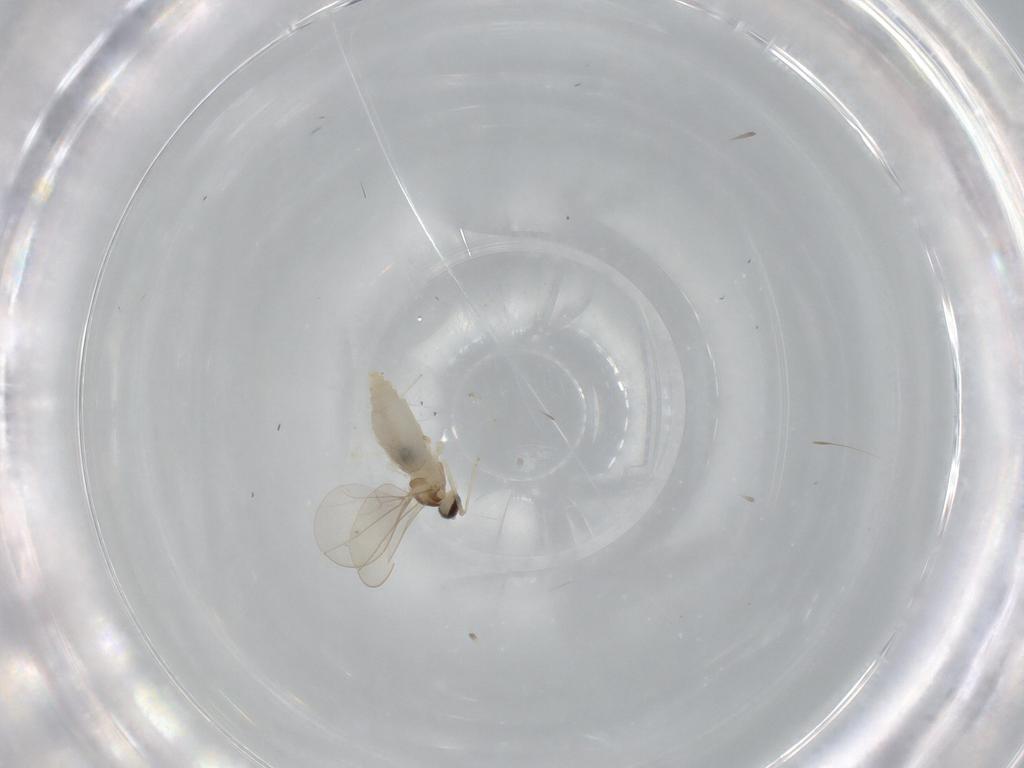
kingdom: Animalia
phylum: Arthropoda
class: Insecta
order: Diptera
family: Cecidomyiidae
